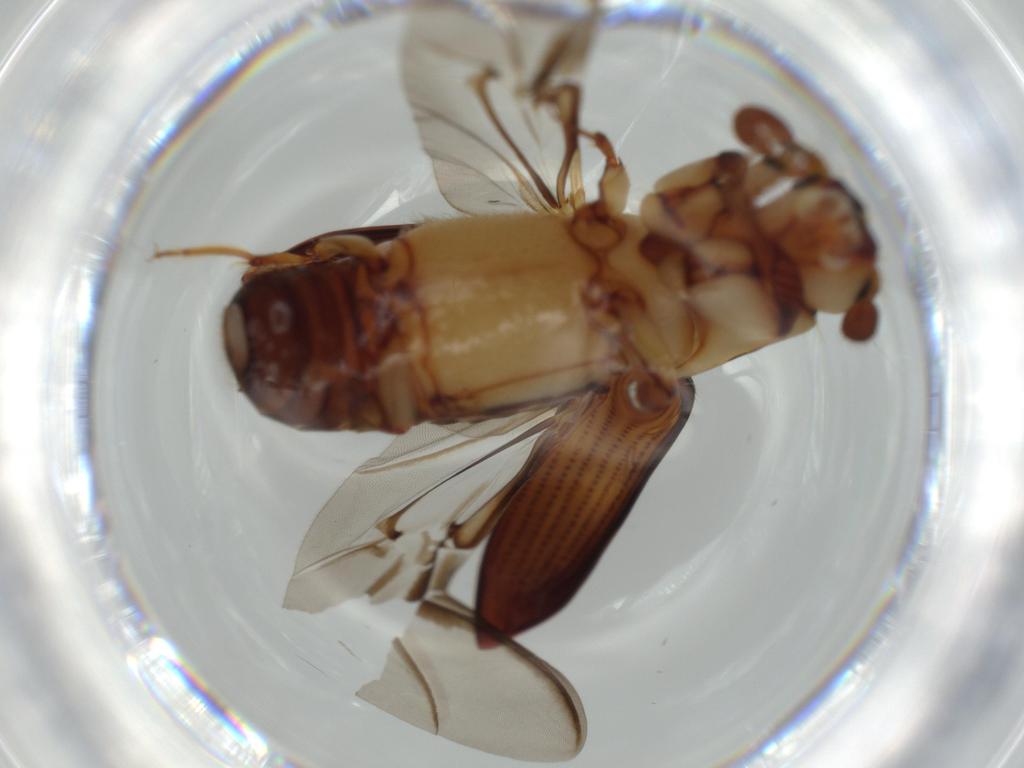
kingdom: Animalia
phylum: Arthropoda
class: Insecta
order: Coleoptera
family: Curculionidae
